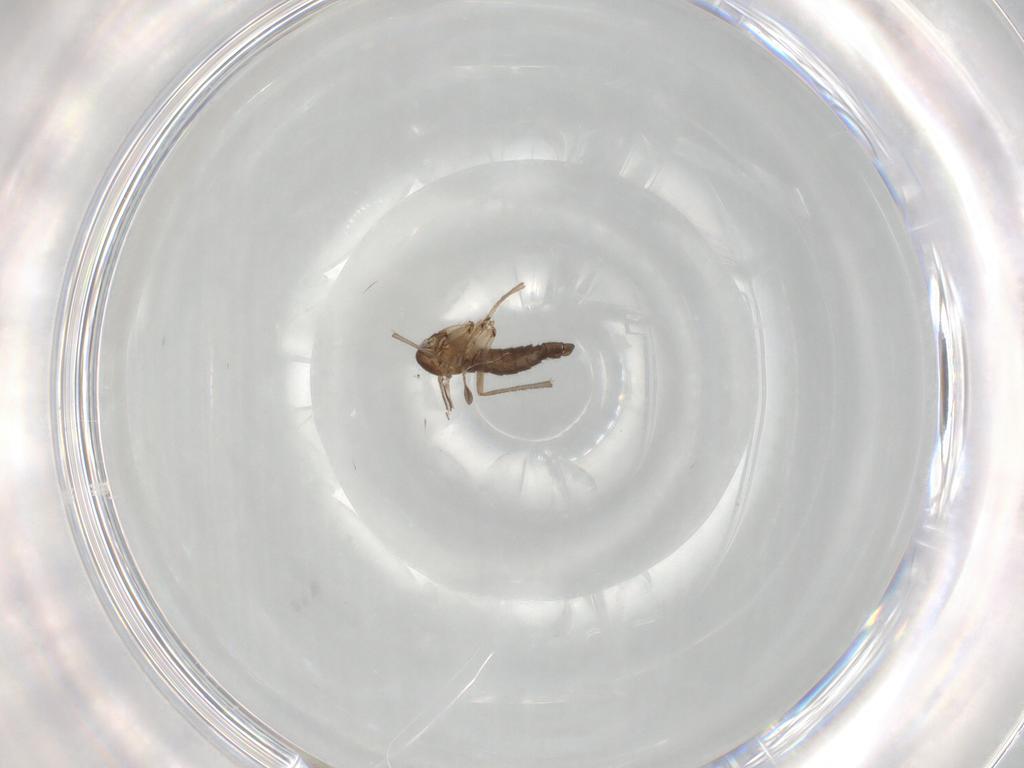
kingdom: Animalia
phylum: Arthropoda
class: Insecta
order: Diptera
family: Sciaridae
